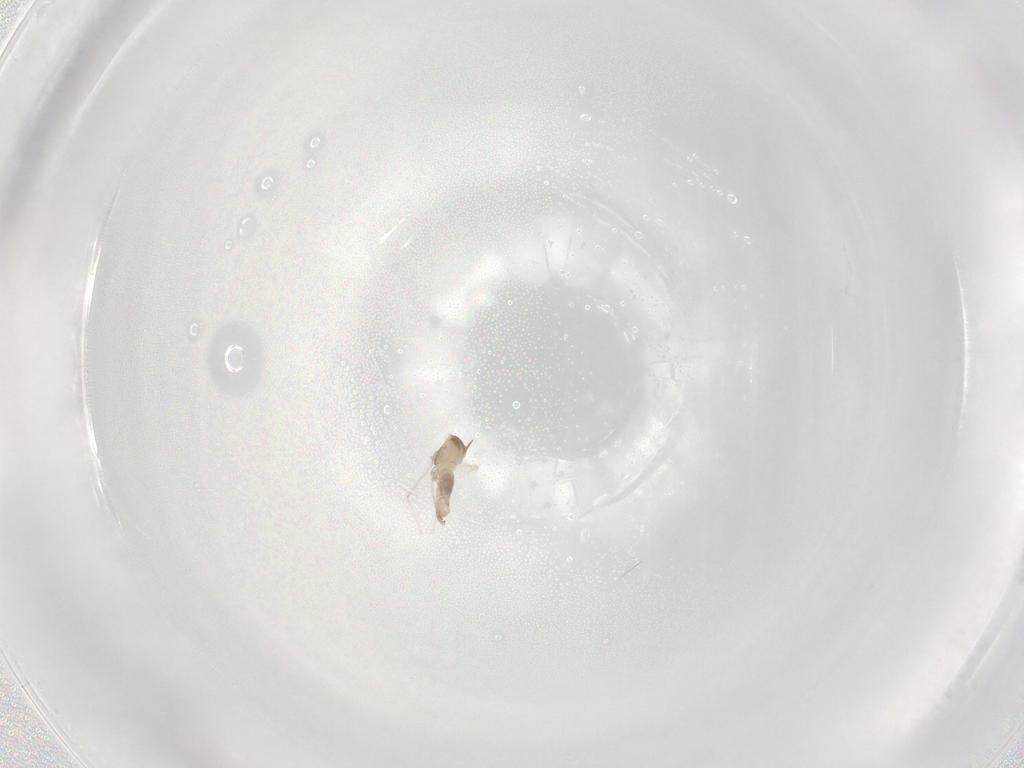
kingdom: Animalia
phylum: Arthropoda
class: Insecta
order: Diptera
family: Cecidomyiidae
